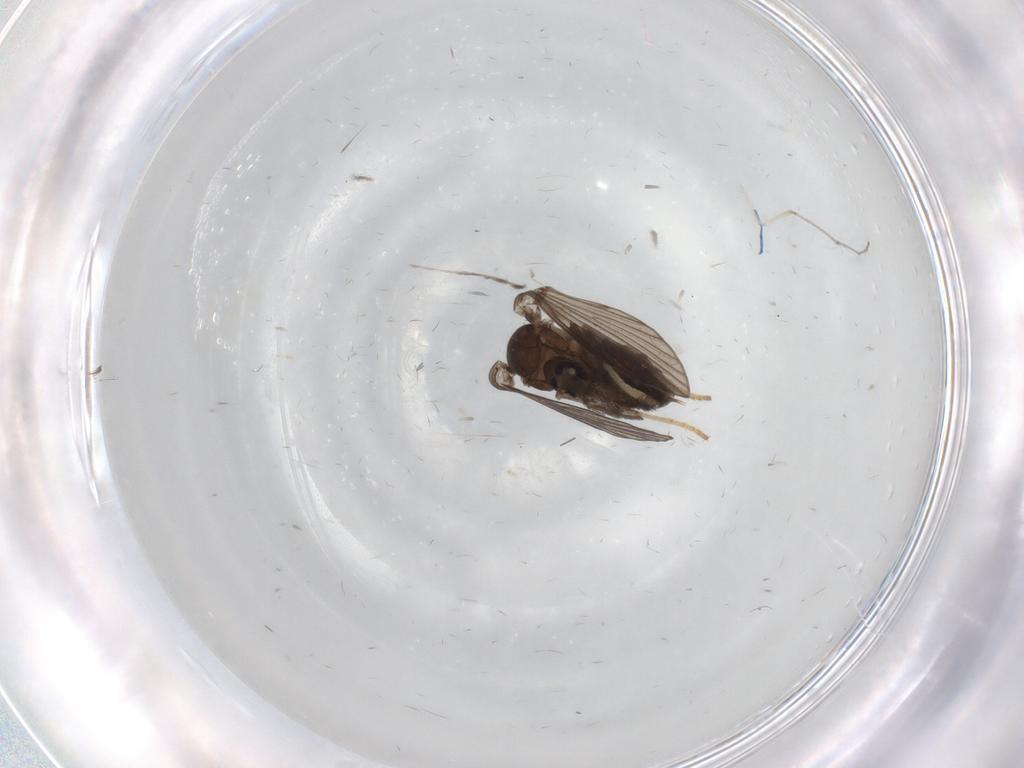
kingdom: Animalia
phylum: Arthropoda
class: Insecta
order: Diptera
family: Psychodidae
